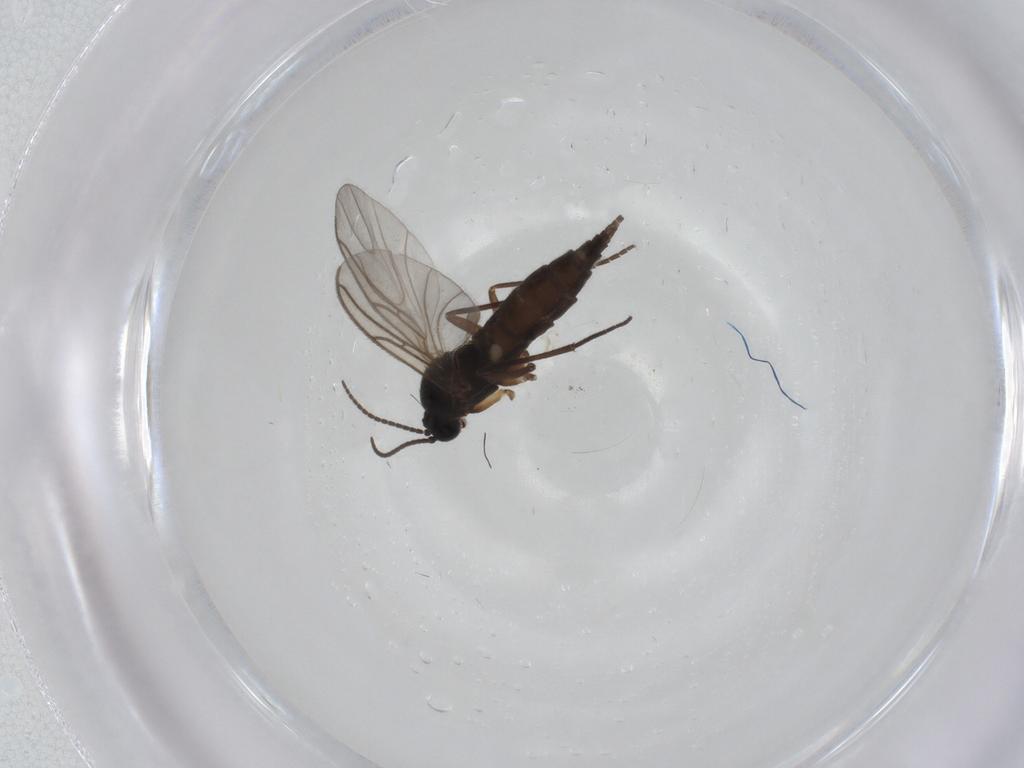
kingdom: Animalia
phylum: Arthropoda
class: Insecta
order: Diptera
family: Sciaridae
